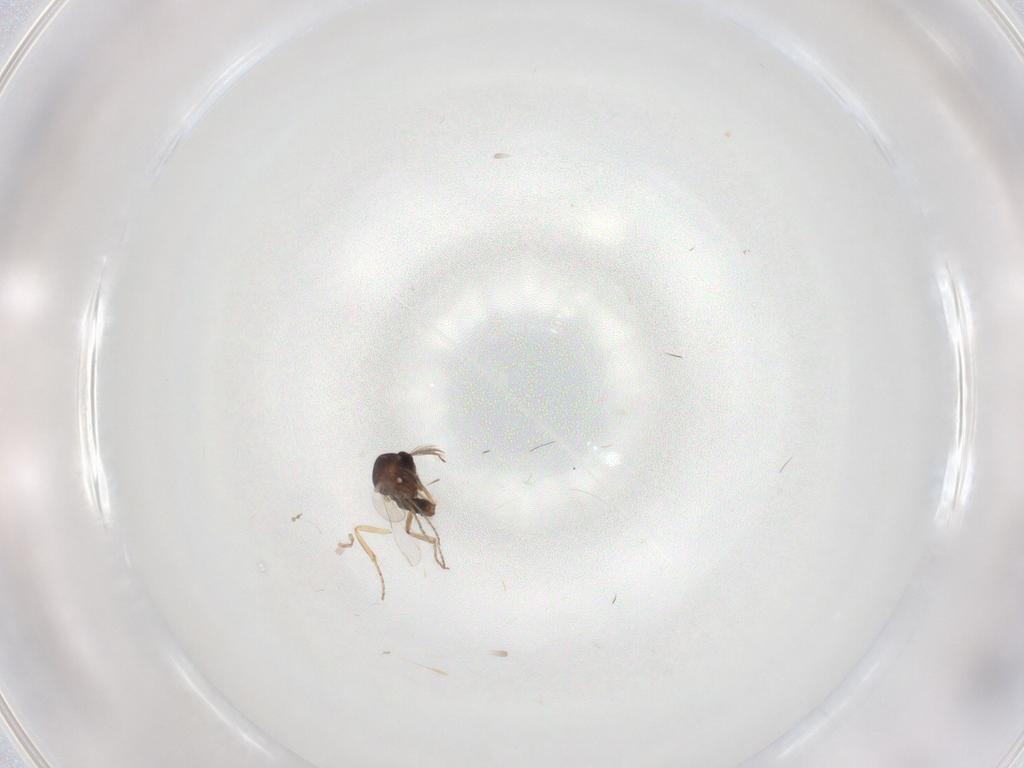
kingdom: Animalia
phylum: Arthropoda
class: Insecta
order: Diptera
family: Ceratopogonidae
